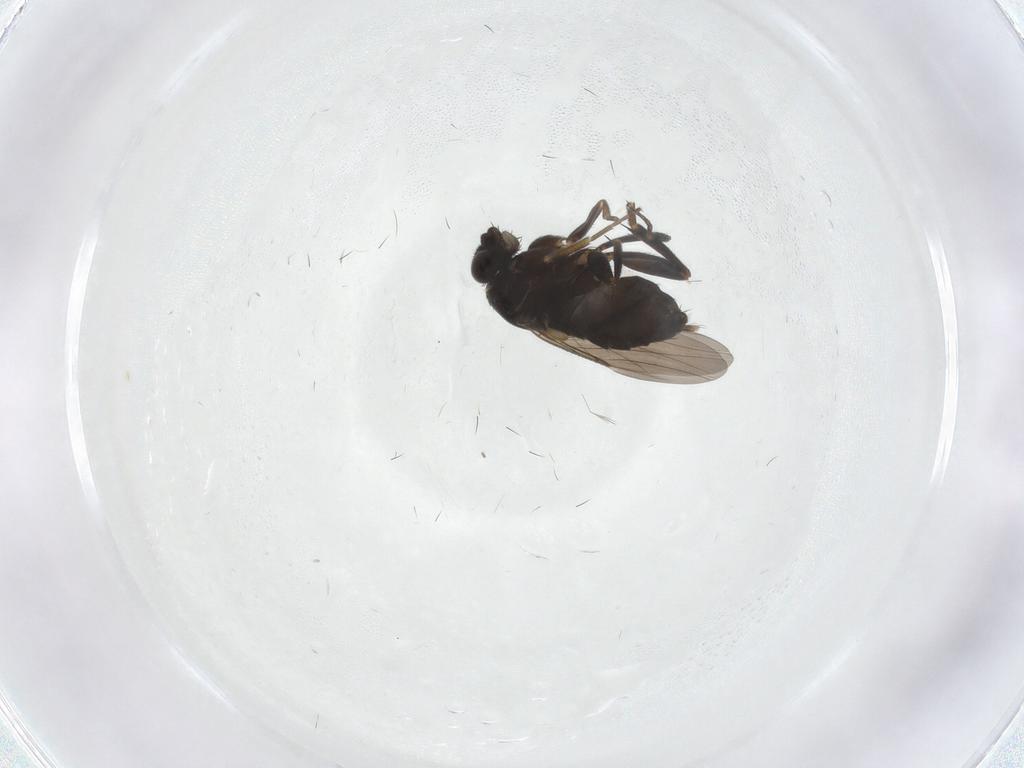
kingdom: Animalia
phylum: Arthropoda
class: Insecta
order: Diptera
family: Phoridae
